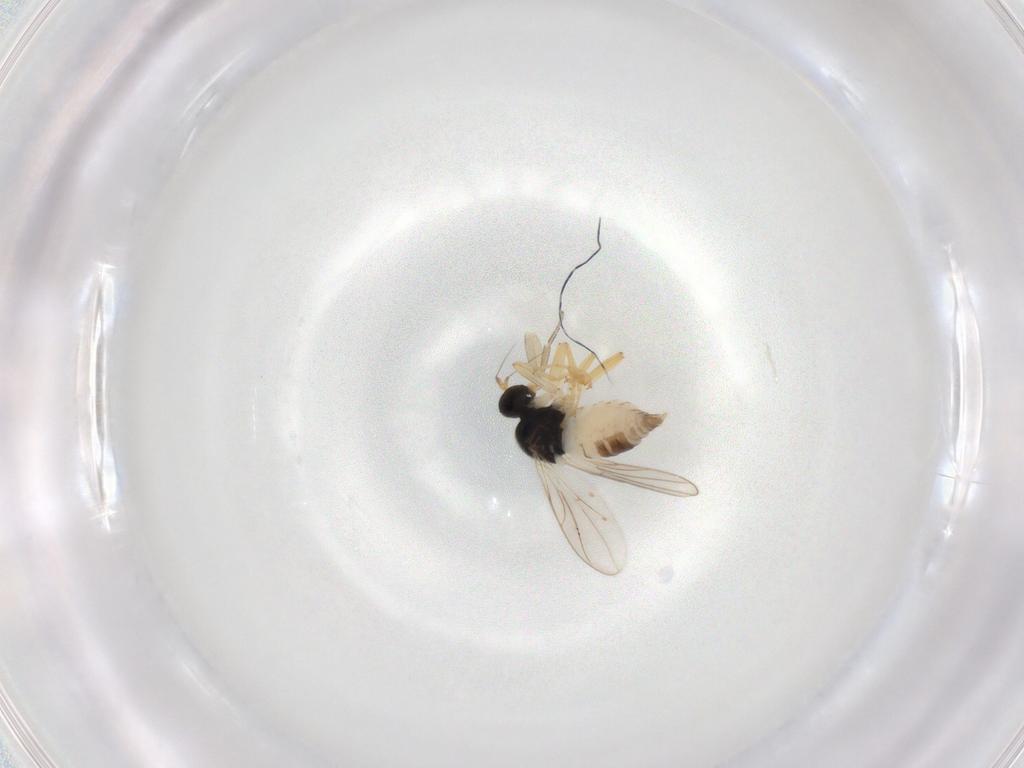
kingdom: Animalia
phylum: Arthropoda
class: Insecta
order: Diptera
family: Hybotidae
